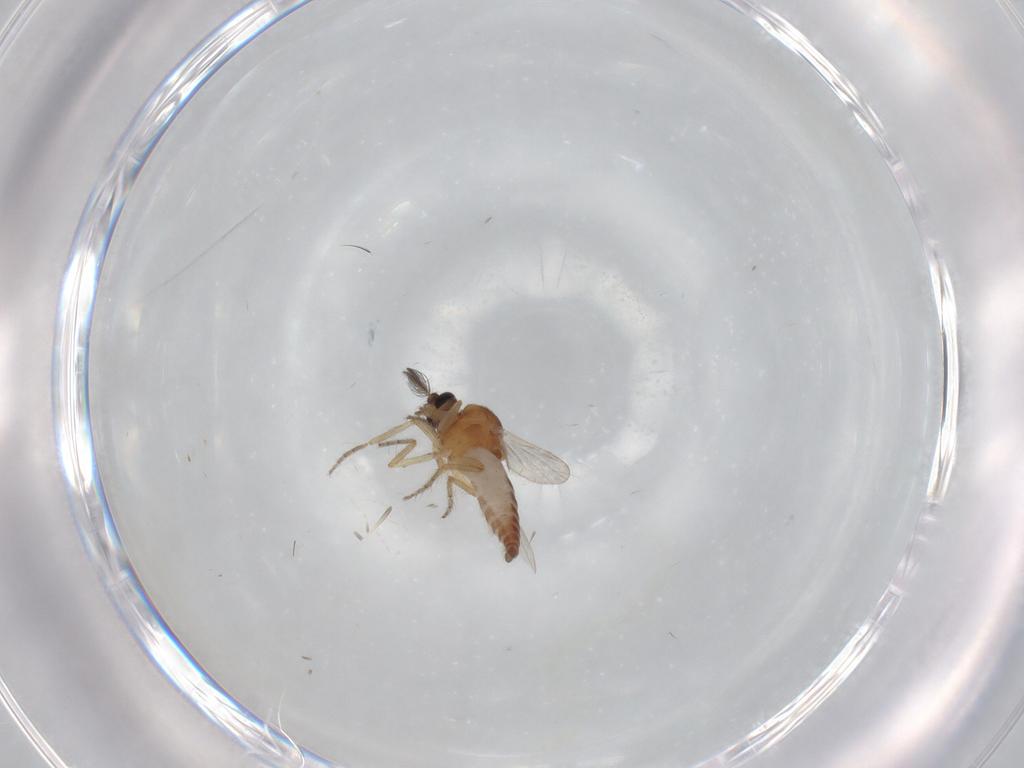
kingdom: Animalia
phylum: Arthropoda
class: Insecta
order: Diptera
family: Ceratopogonidae
